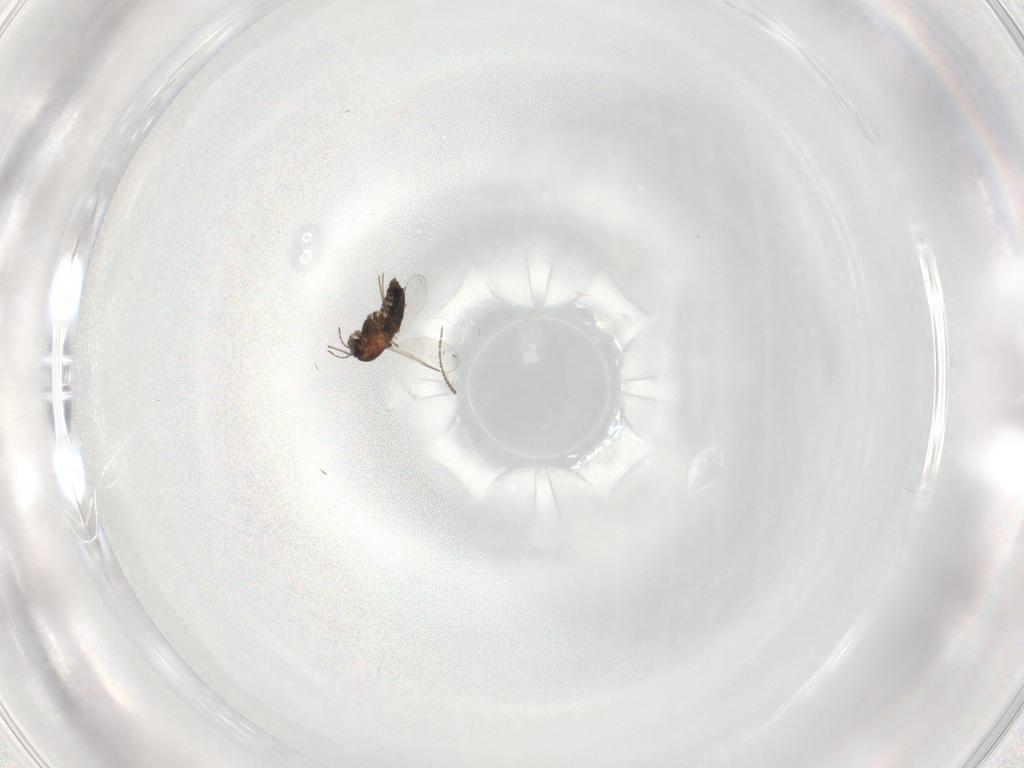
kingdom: Animalia
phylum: Arthropoda
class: Insecta
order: Diptera
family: Chironomidae
